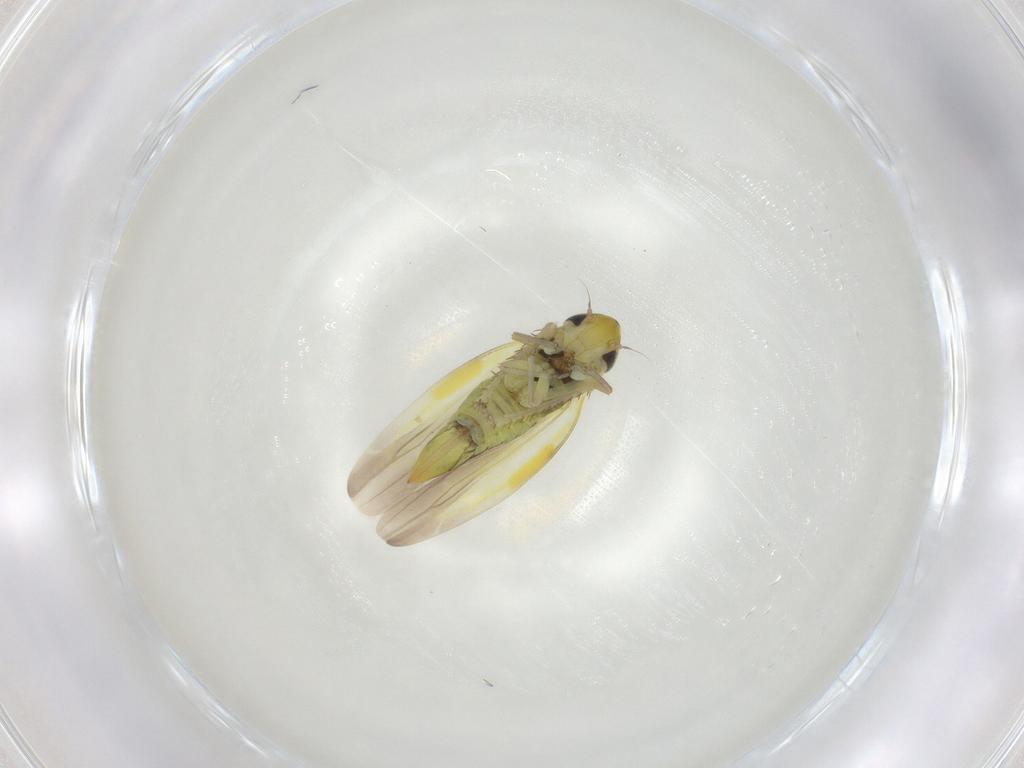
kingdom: Animalia
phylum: Arthropoda
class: Insecta
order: Hemiptera
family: Cicadellidae
